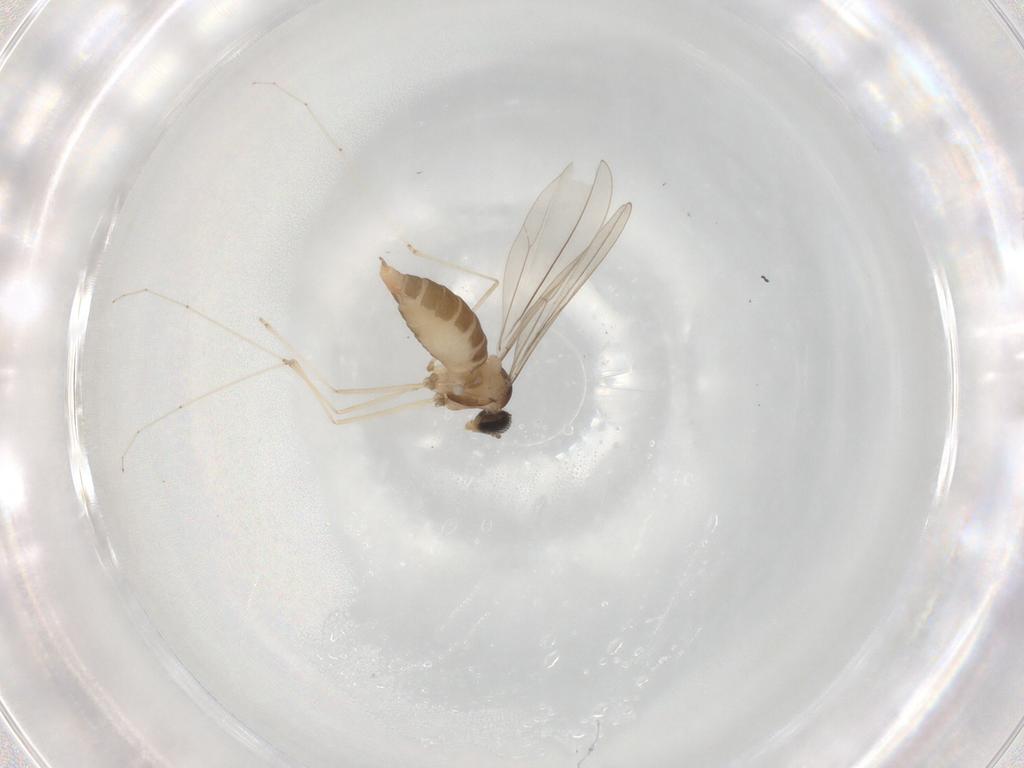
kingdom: Animalia
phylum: Arthropoda
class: Insecta
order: Diptera
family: Cecidomyiidae
